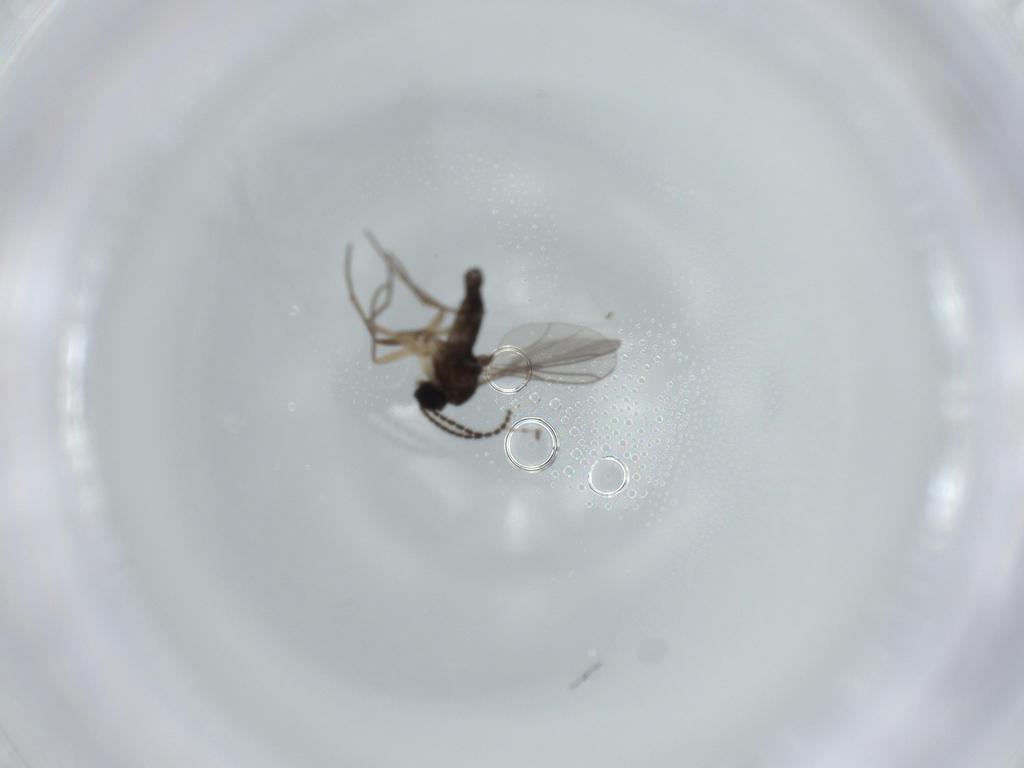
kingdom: Animalia
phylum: Arthropoda
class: Insecta
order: Diptera
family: Sciaridae
